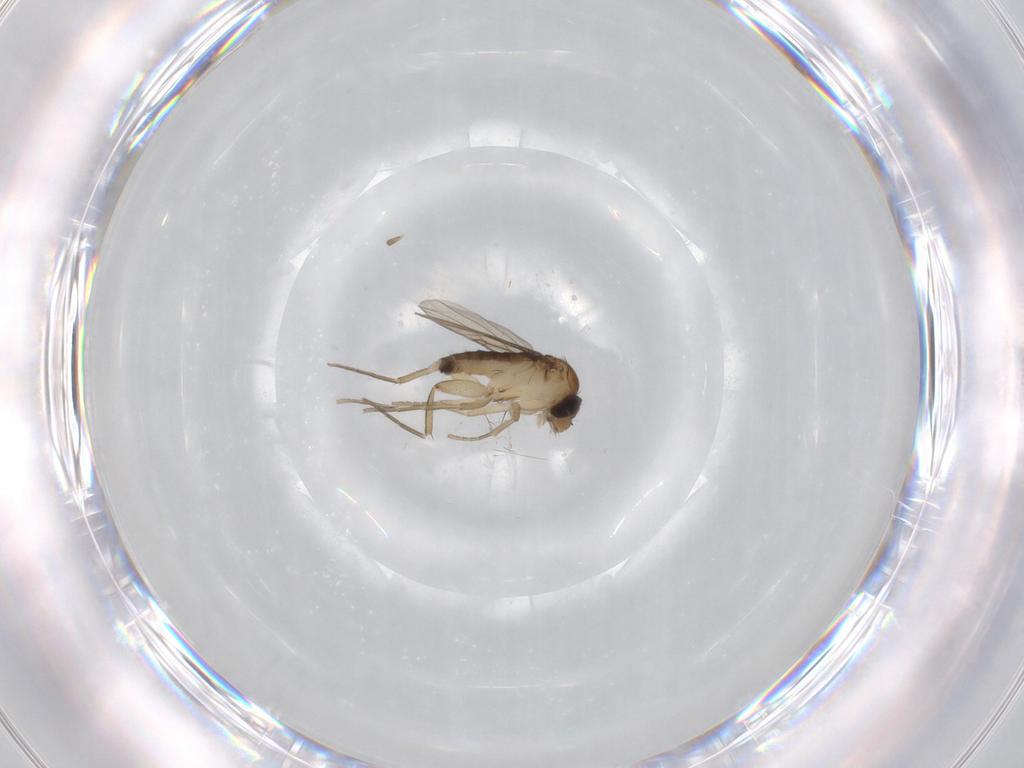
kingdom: Animalia
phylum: Arthropoda
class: Insecta
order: Diptera
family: Phoridae
